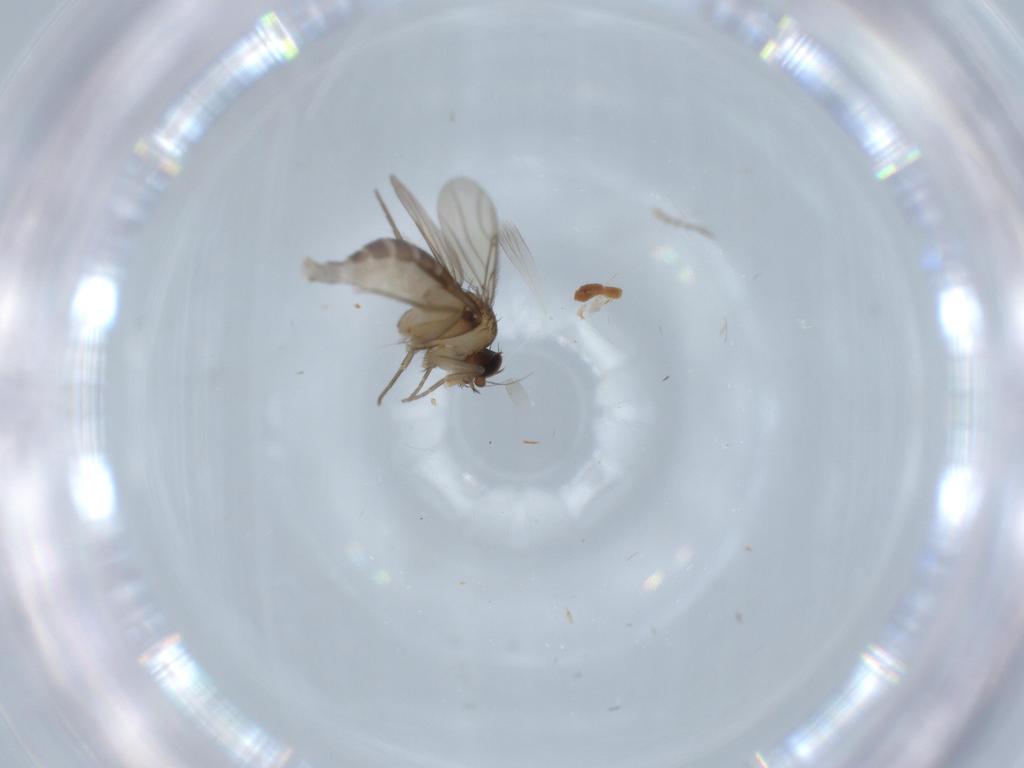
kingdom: Animalia
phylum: Arthropoda
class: Insecta
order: Diptera
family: Phoridae
